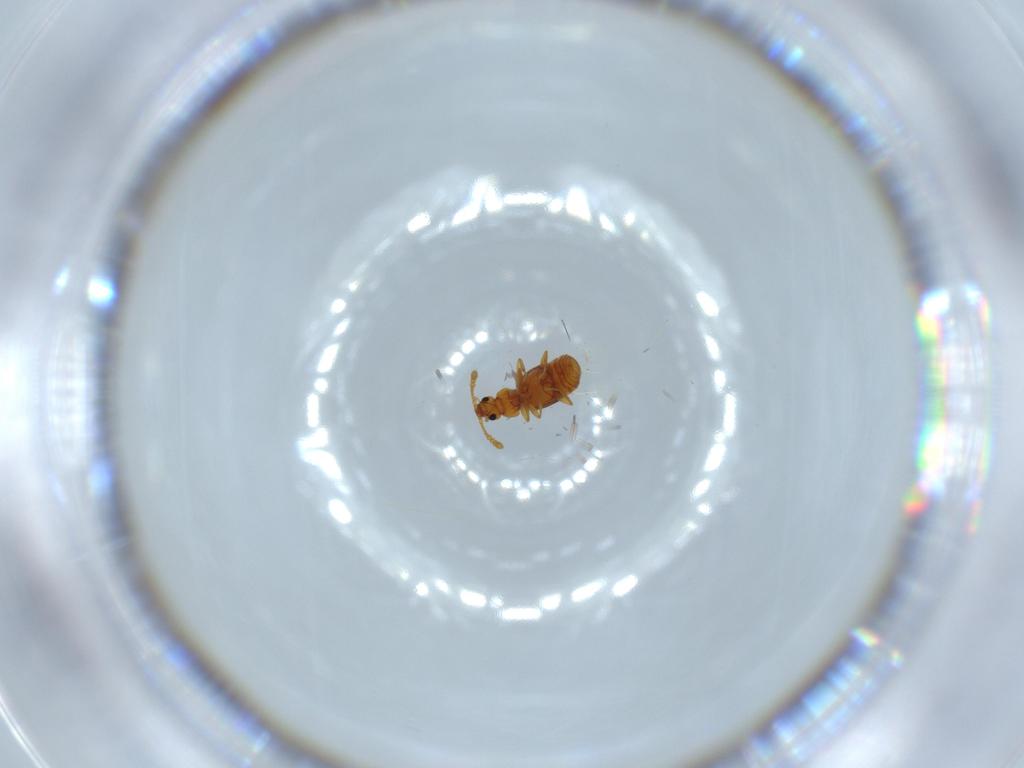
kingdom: Animalia
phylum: Arthropoda
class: Insecta
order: Coleoptera
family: Staphylinidae
